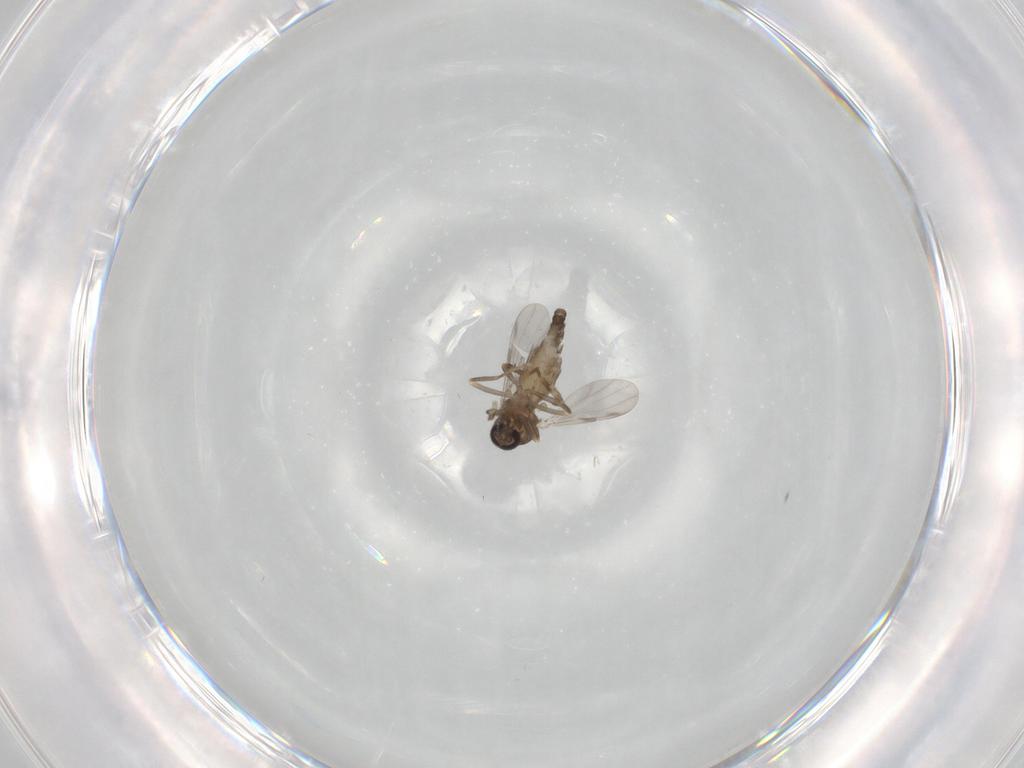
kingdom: Animalia
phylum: Arthropoda
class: Insecta
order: Diptera
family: Ceratopogonidae
